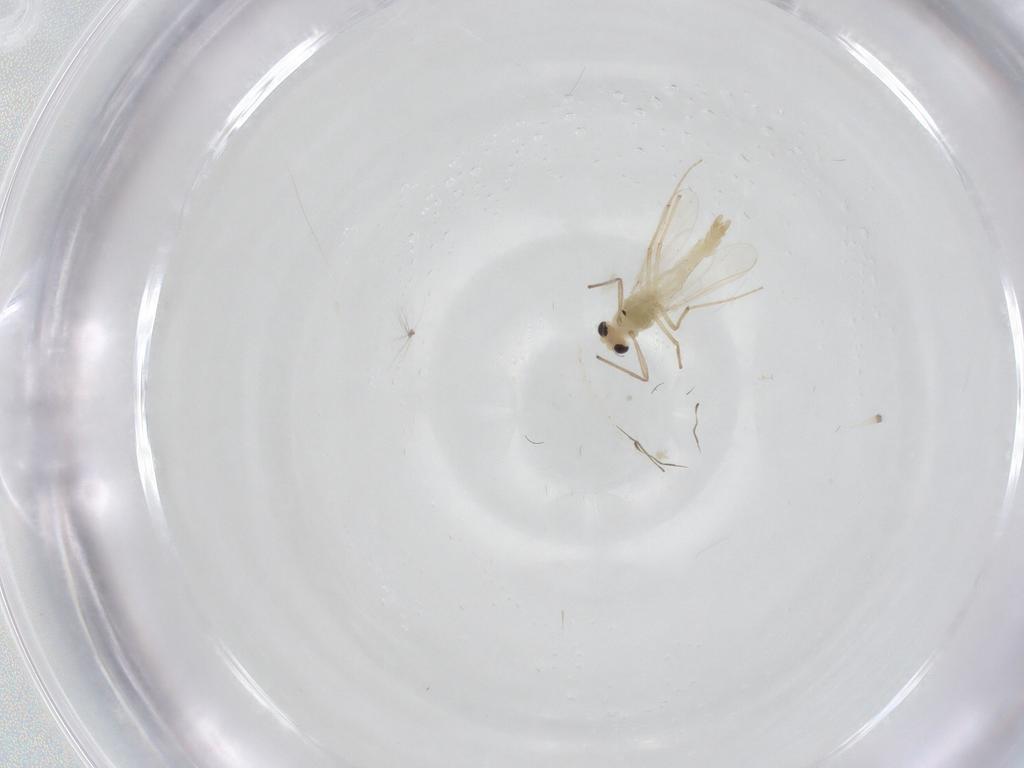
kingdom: Animalia
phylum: Arthropoda
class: Insecta
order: Diptera
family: Chironomidae
